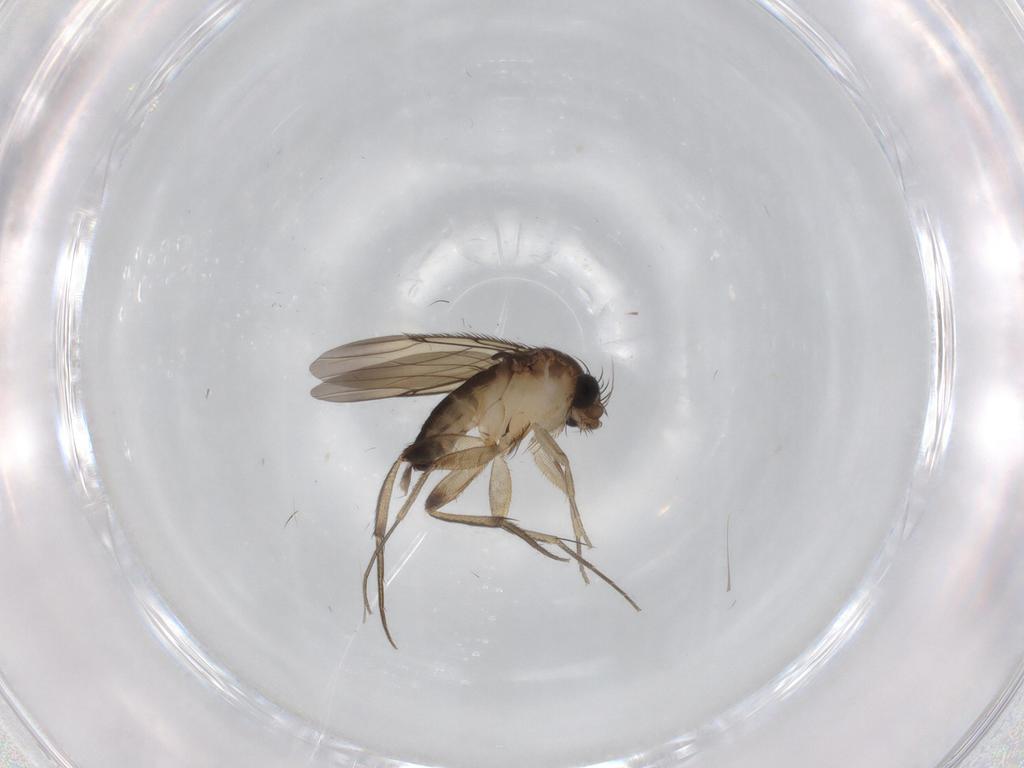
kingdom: Animalia
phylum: Arthropoda
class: Insecta
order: Diptera
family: Phoridae
